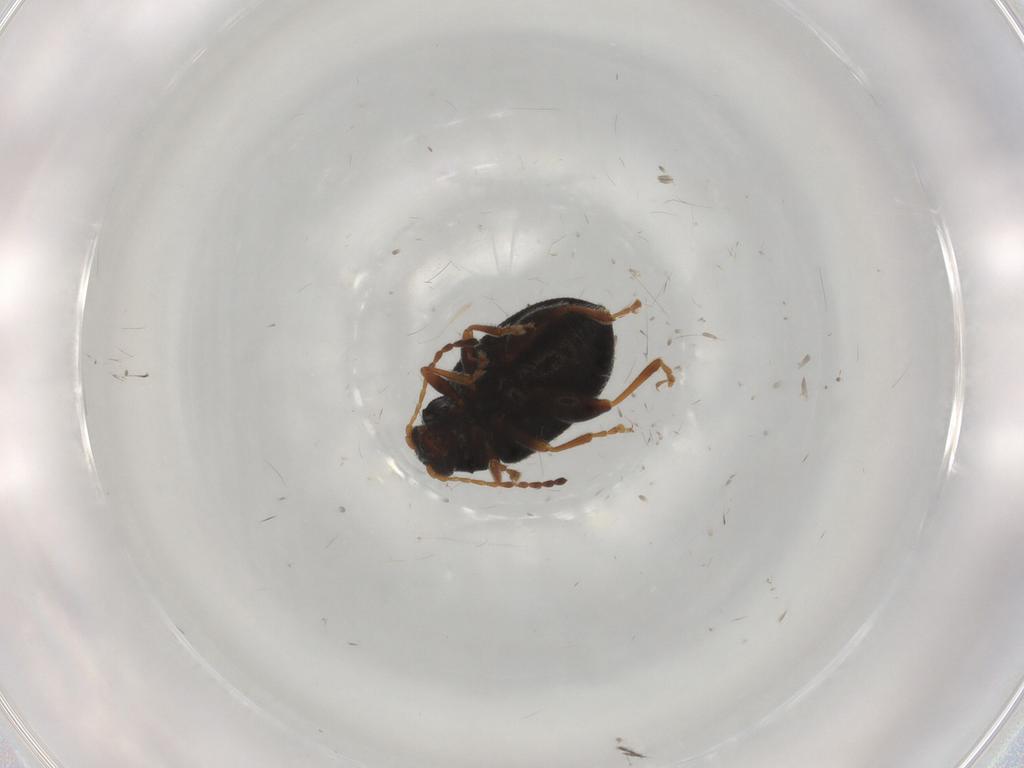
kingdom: Animalia
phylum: Arthropoda
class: Insecta
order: Coleoptera
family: Chrysomelidae
